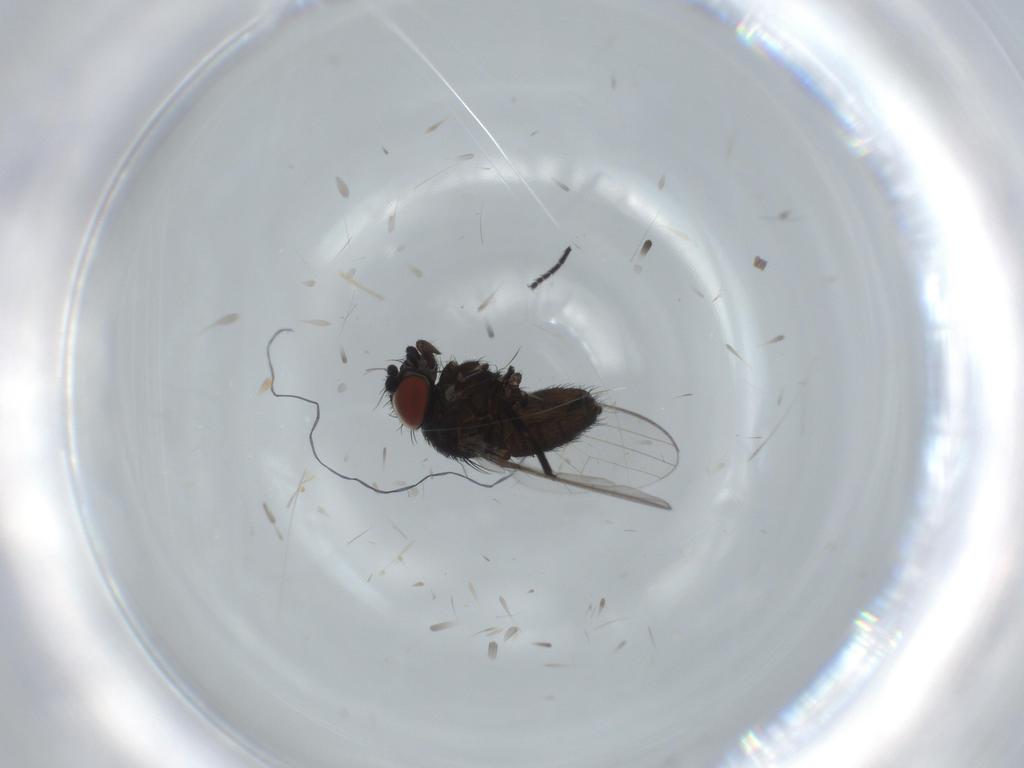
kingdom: Animalia
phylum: Arthropoda
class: Insecta
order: Diptera
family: Milichiidae
